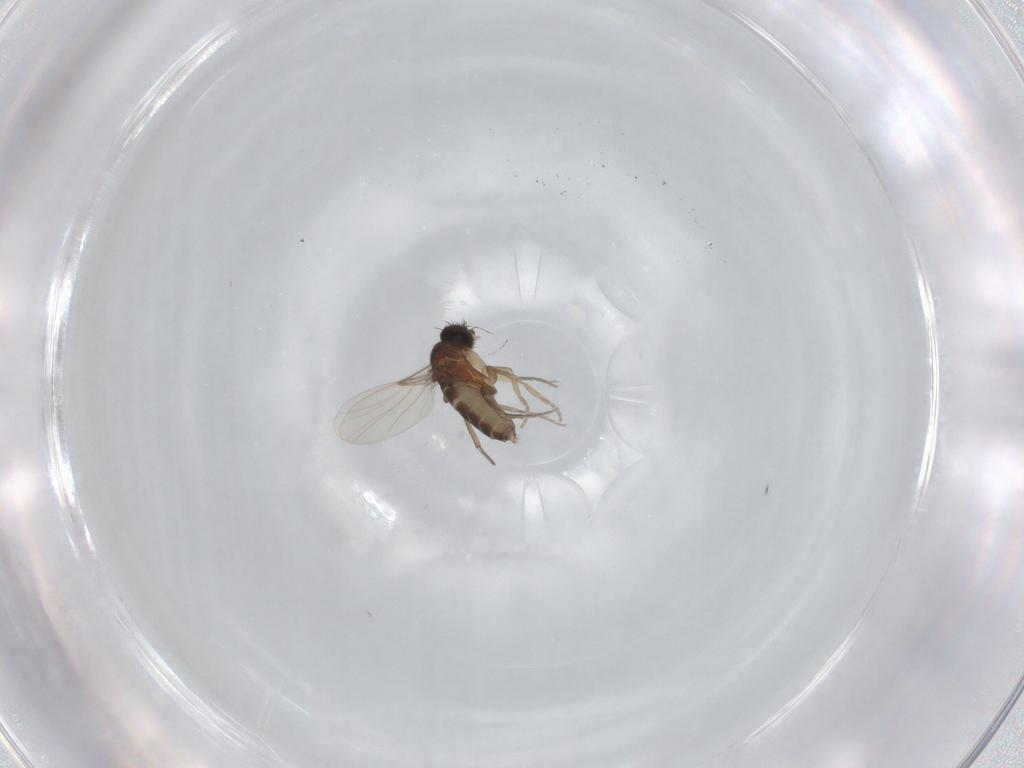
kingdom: Animalia
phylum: Arthropoda
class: Insecta
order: Diptera
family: Phoridae
